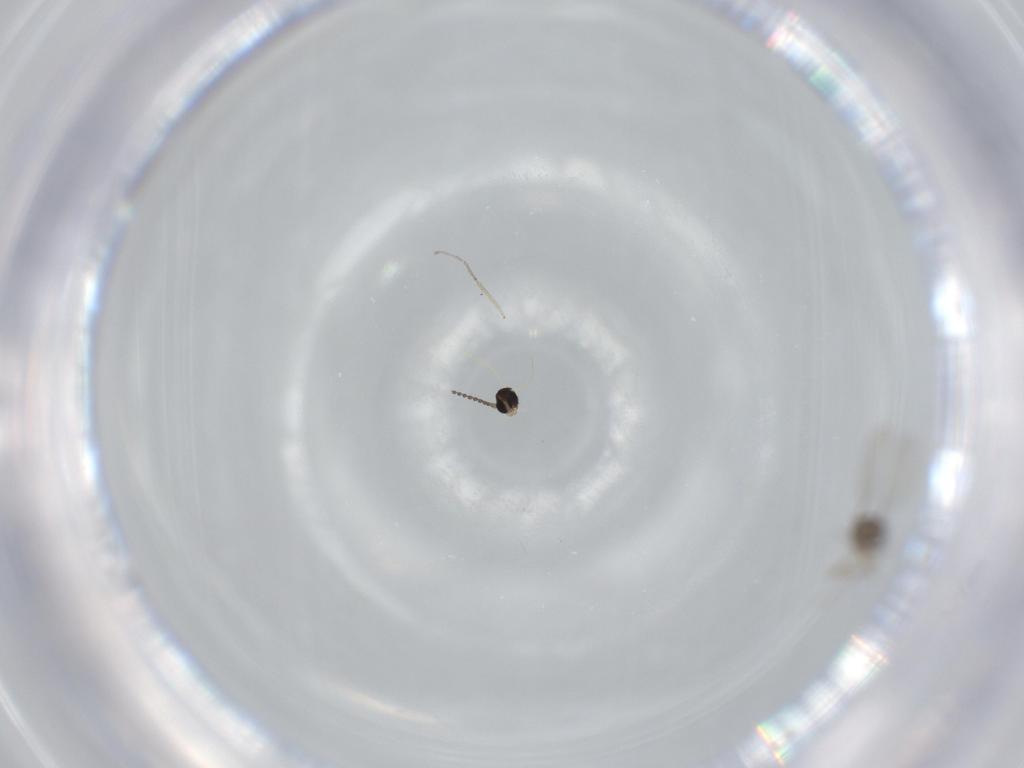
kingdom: Animalia
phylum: Arthropoda
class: Insecta
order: Diptera
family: Cecidomyiidae
